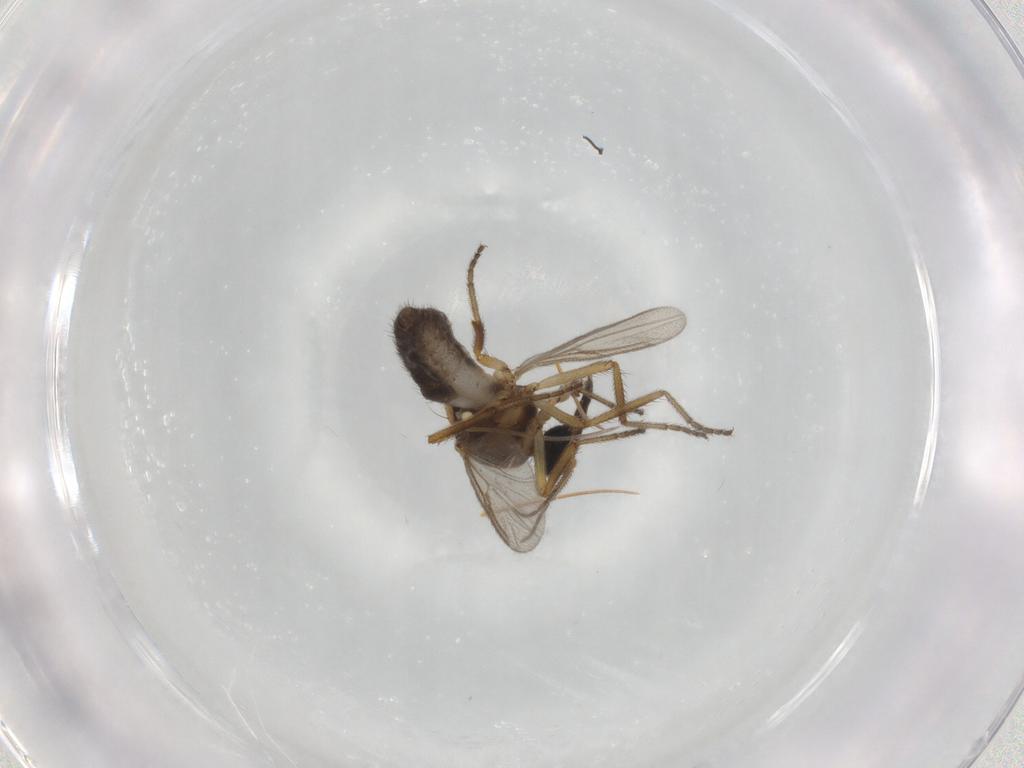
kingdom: Animalia
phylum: Arthropoda
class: Insecta
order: Diptera
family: Ceratopogonidae
